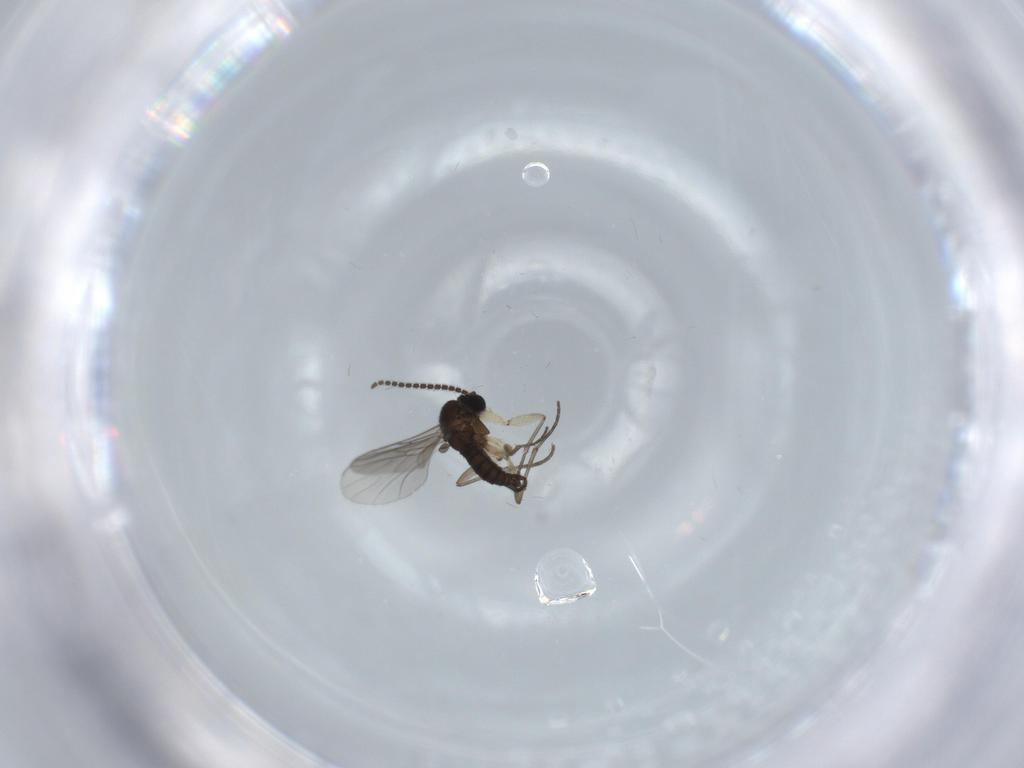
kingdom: Animalia
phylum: Arthropoda
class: Insecta
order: Diptera
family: Sciaridae
